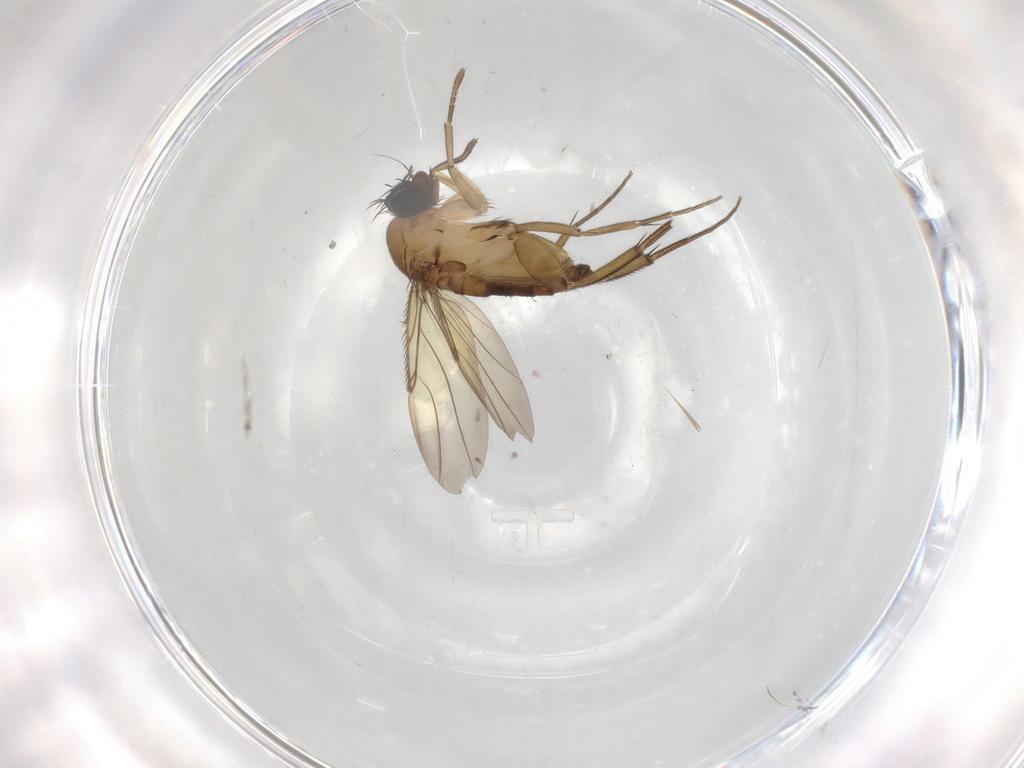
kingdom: Animalia
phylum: Arthropoda
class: Insecta
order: Diptera
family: Phoridae
